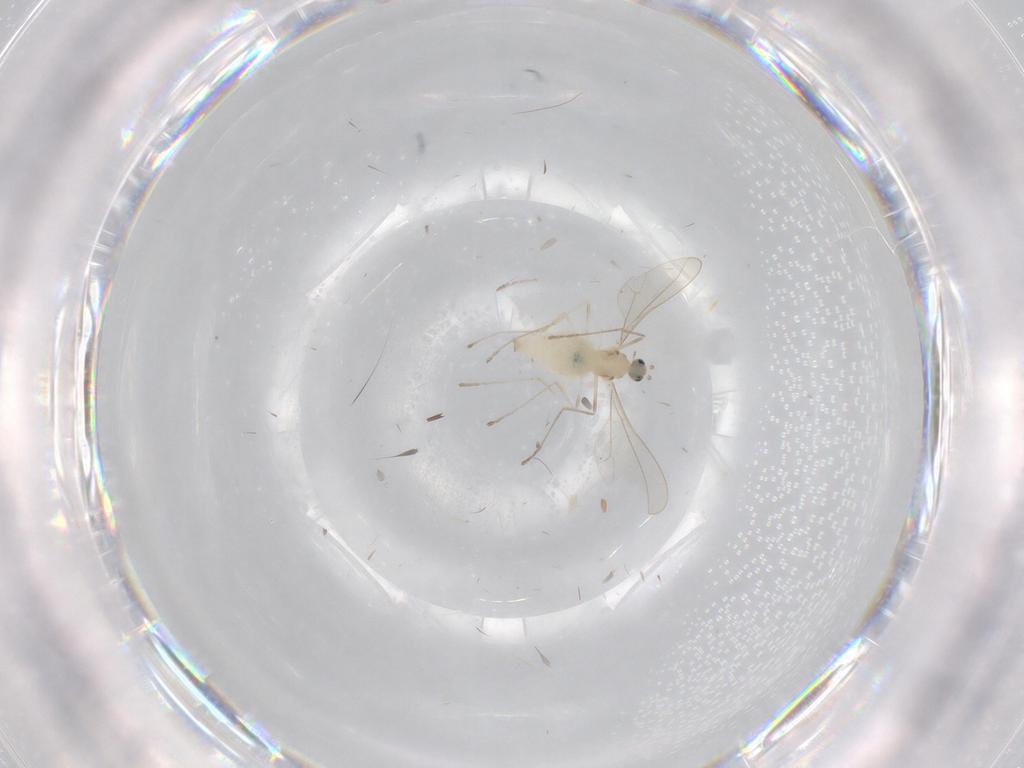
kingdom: Animalia
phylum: Arthropoda
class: Insecta
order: Diptera
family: Cecidomyiidae
